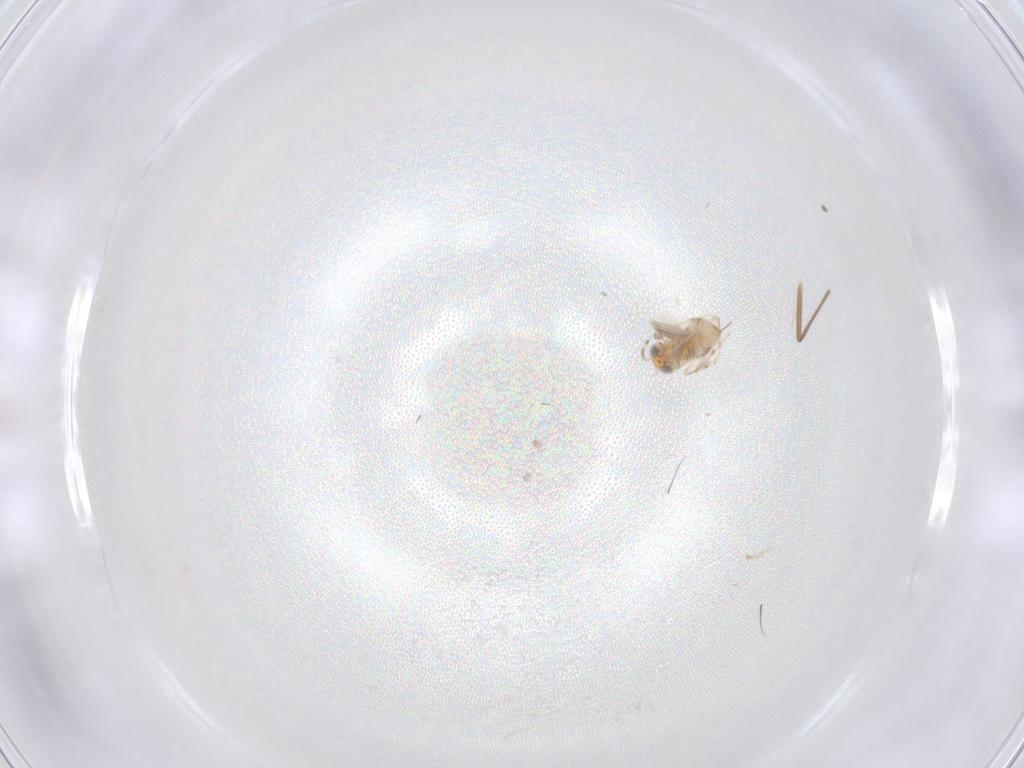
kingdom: Animalia
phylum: Arthropoda
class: Insecta
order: Hymenoptera
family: Aphelinidae
